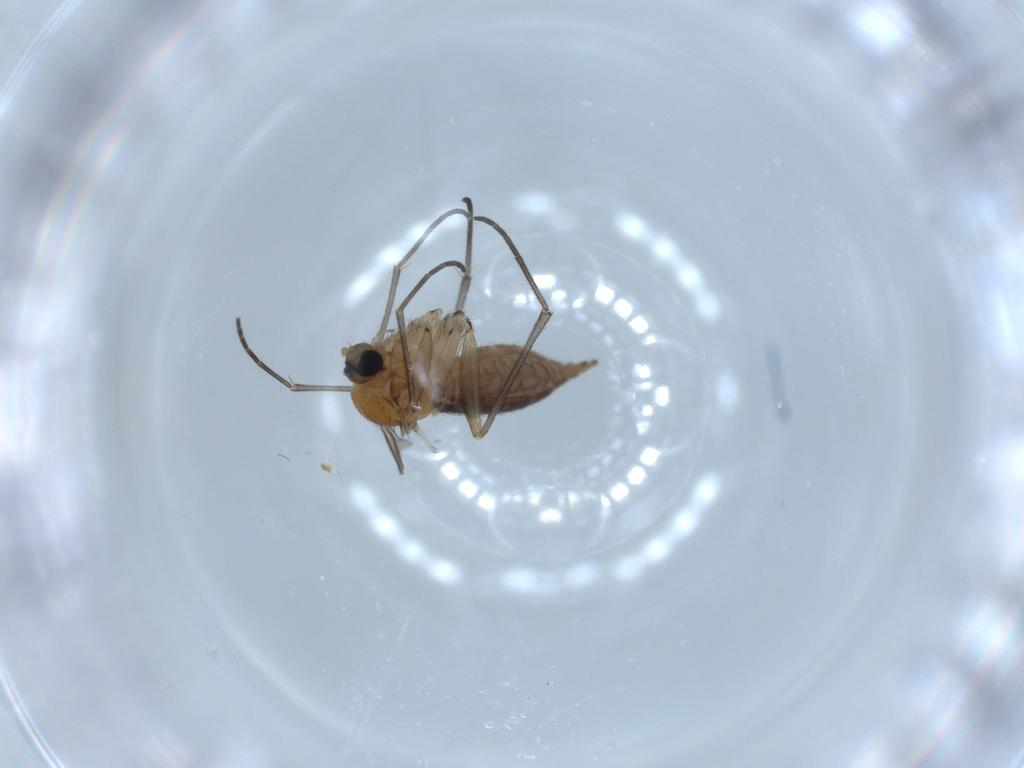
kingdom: Animalia
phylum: Arthropoda
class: Insecta
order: Diptera
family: Sciaridae
